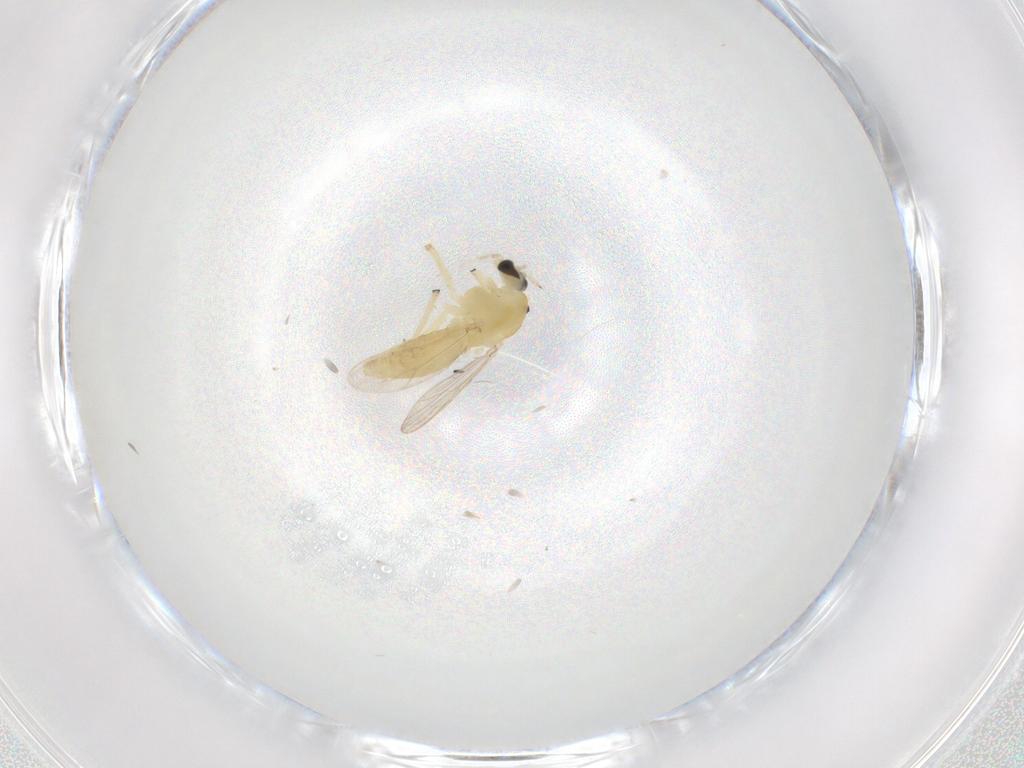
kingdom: Animalia
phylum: Arthropoda
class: Insecta
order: Diptera
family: Chironomidae
